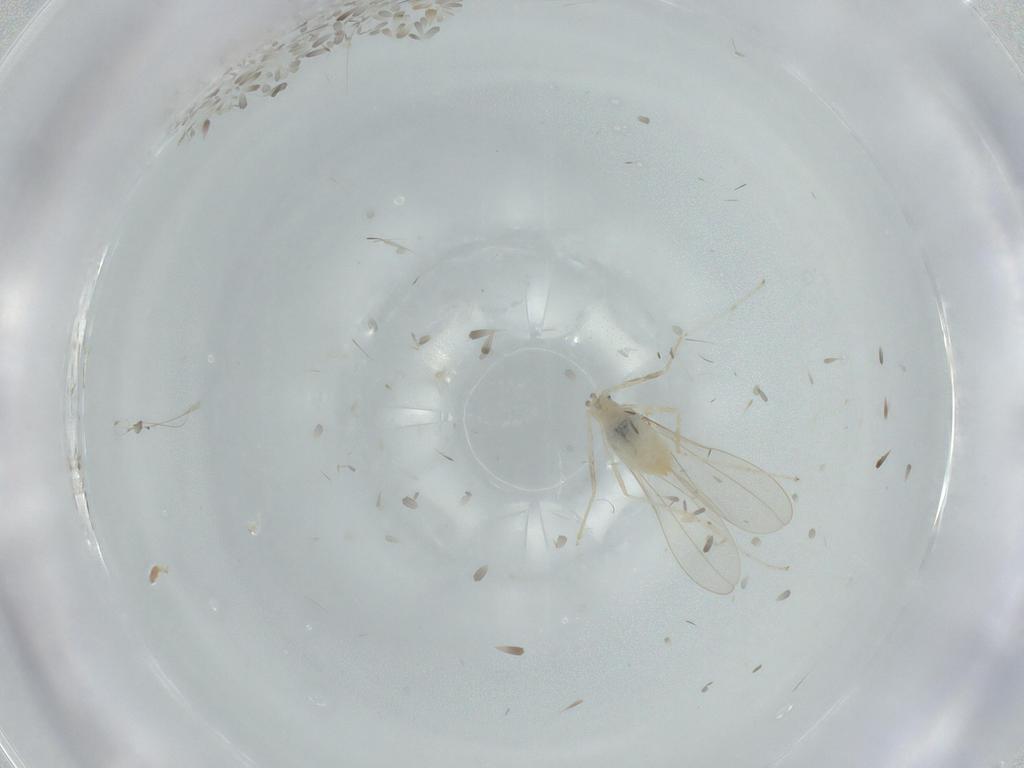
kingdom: Animalia
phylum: Arthropoda
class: Insecta
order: Diptera
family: Cecidomyiidae
